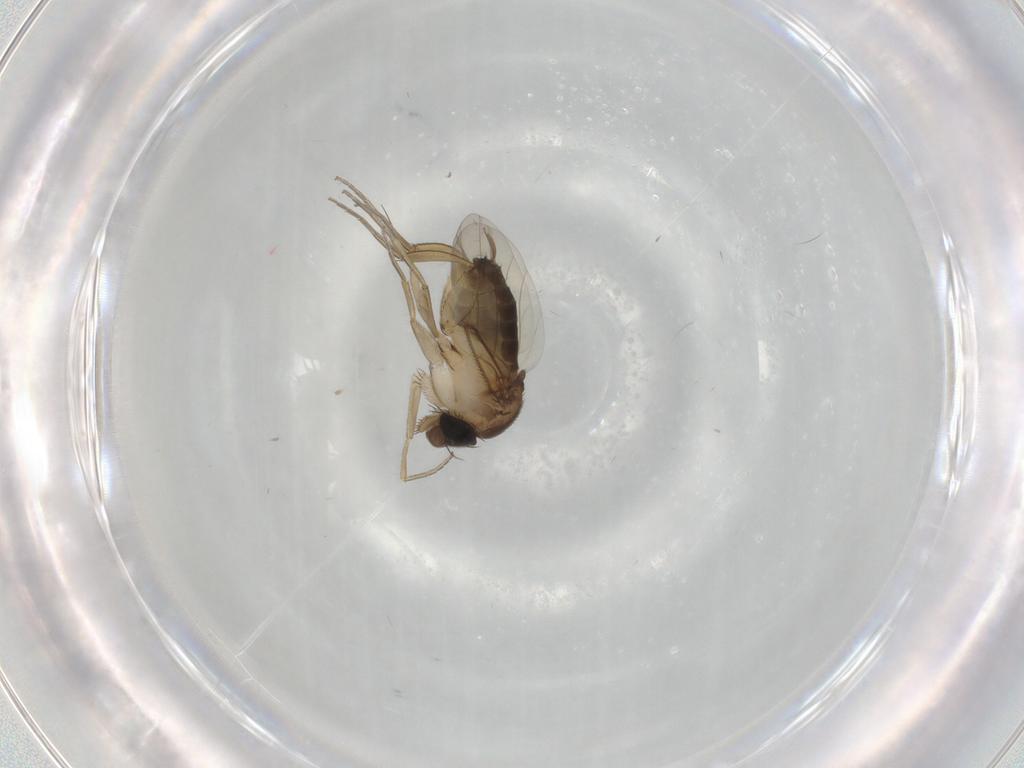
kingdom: Animalia
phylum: Arthropoda
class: Insecta
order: Diptera
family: Phoridae
